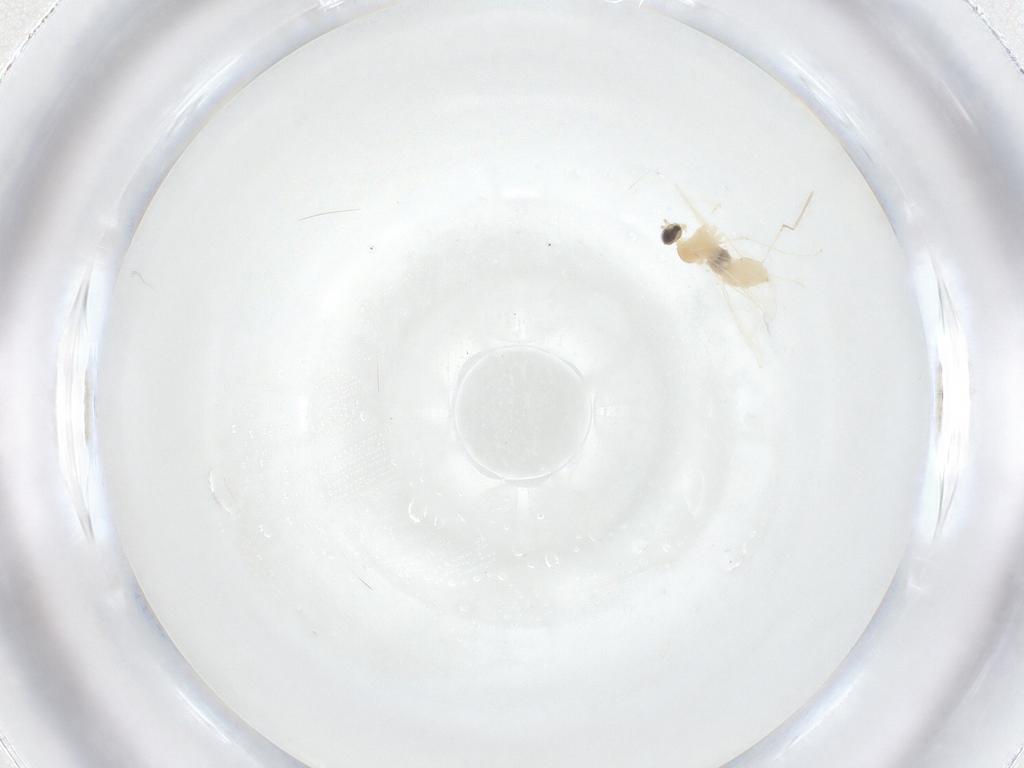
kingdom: Animalia
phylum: Arthropoda
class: Insecta
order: Diptera
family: Cecidomyiidae
